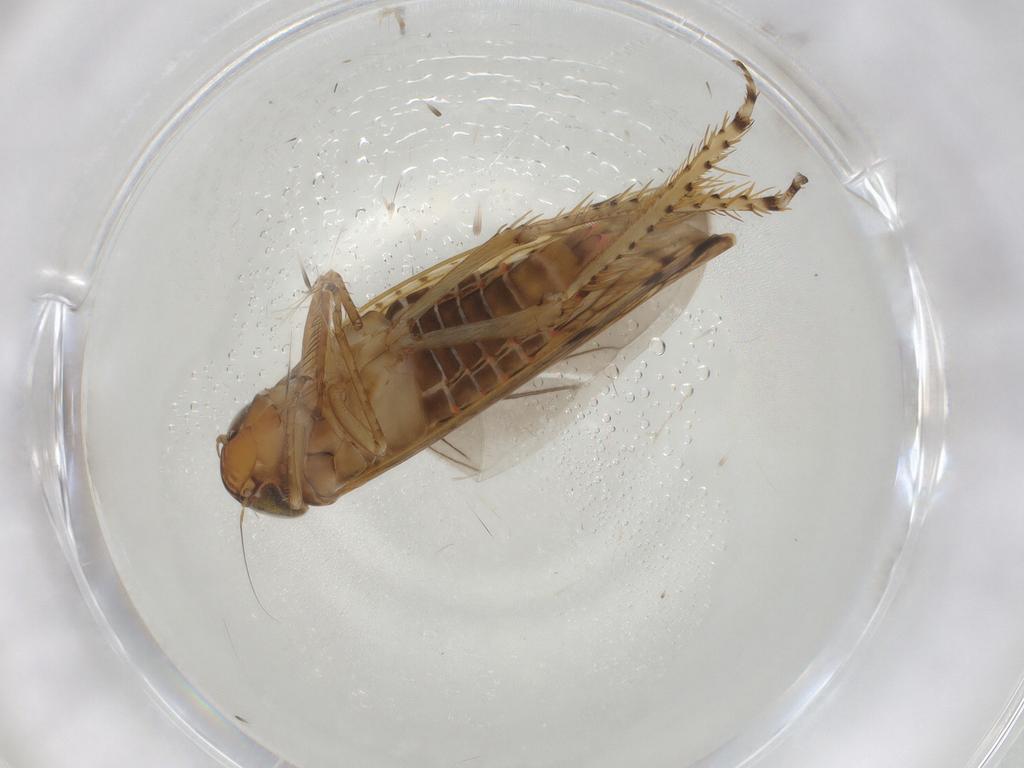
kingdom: Animalia
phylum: Arthropoda
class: Insecta
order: Hemiptera
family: Cicadellidae
